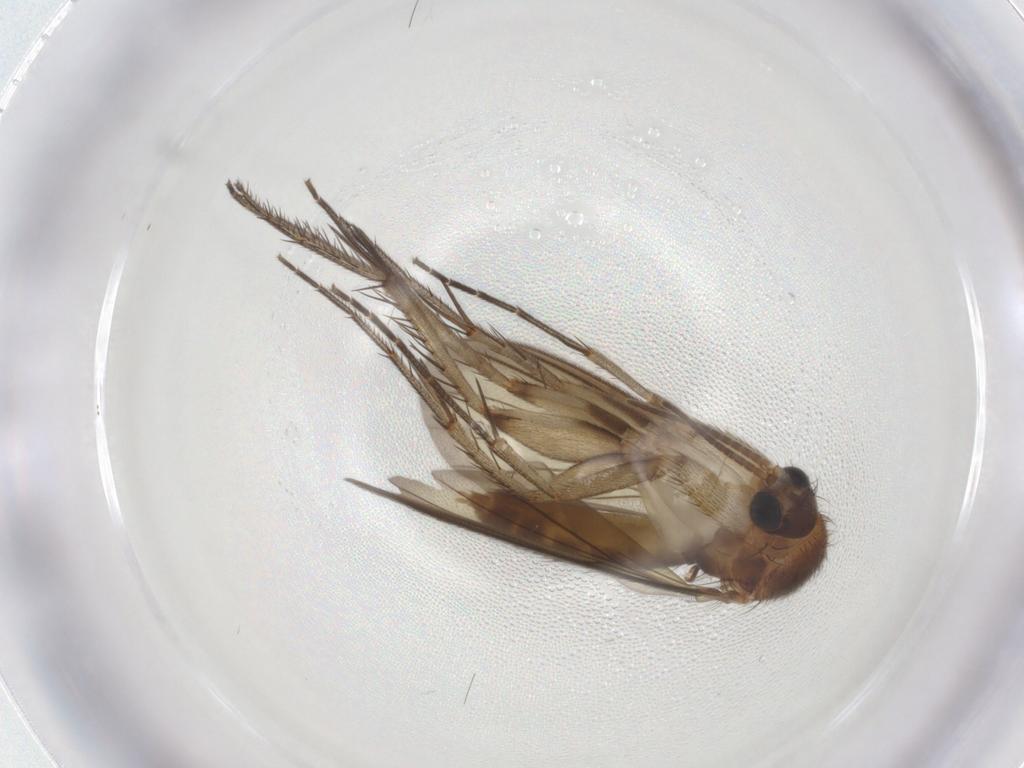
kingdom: Animalia
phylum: Arthropoda
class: Insecta
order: Diptera
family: Mycetophilidae
